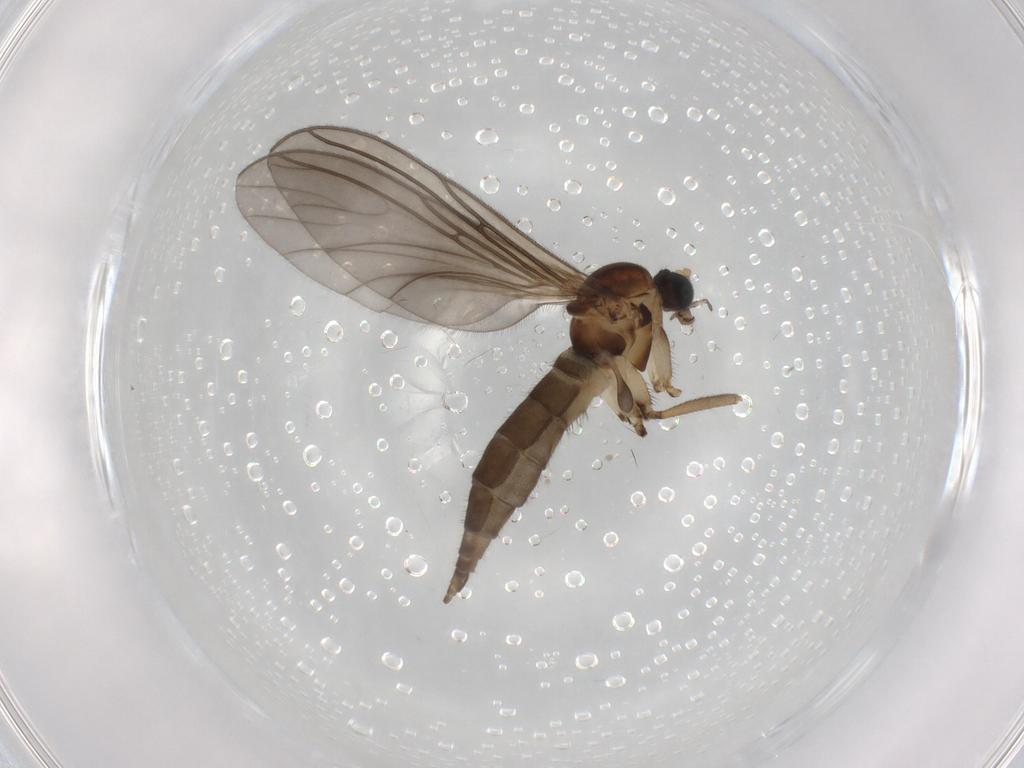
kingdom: Animalia
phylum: Arthropoda
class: Insecta
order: Diptera
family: Sciaridae
